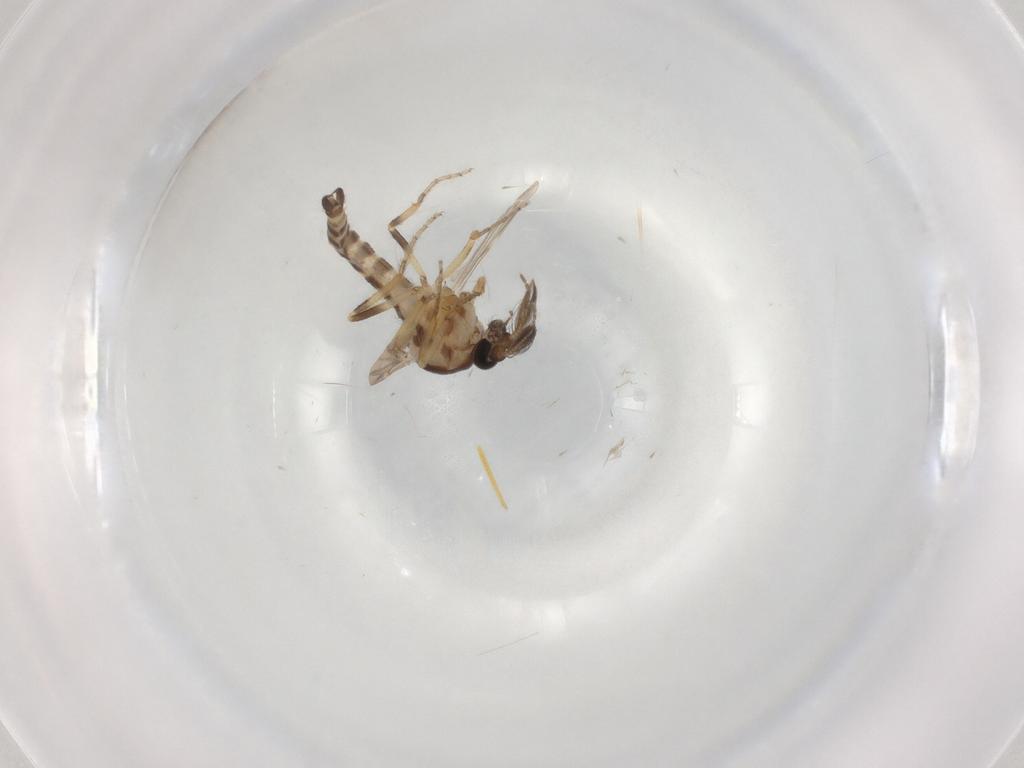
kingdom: Animalia
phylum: Arthropoda
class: Insecta
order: Diptera
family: Ceratopogonidae
